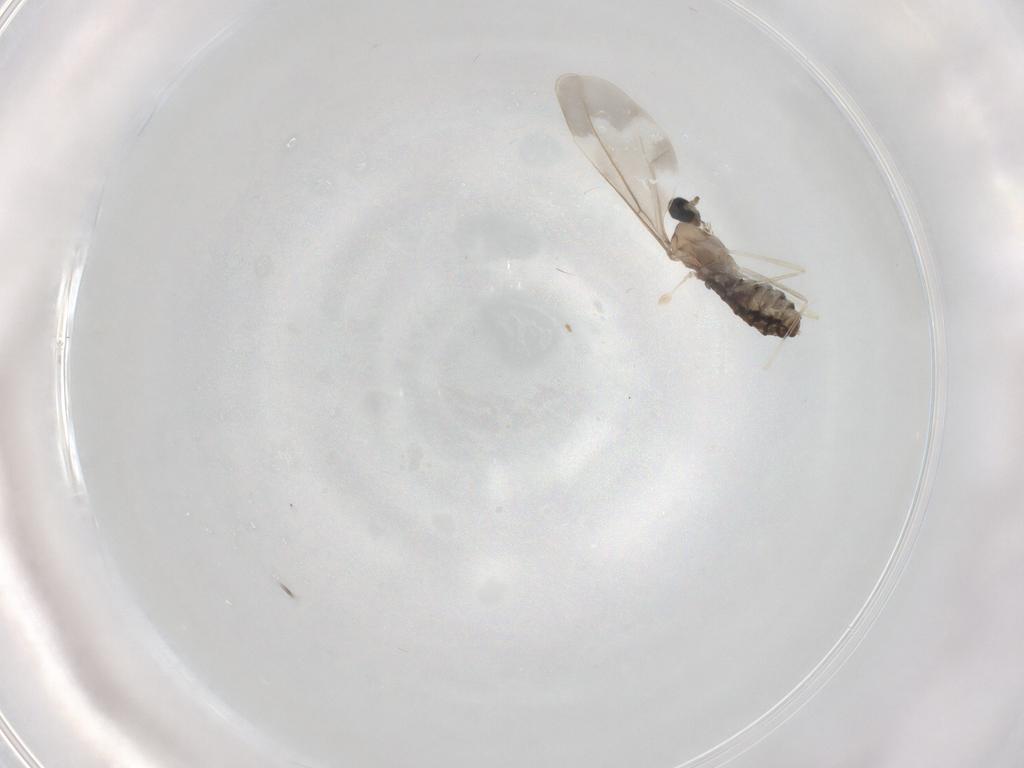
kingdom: Animalia
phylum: Arthropoda
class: Insecta
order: Diptera
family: Cecidomyiidae
